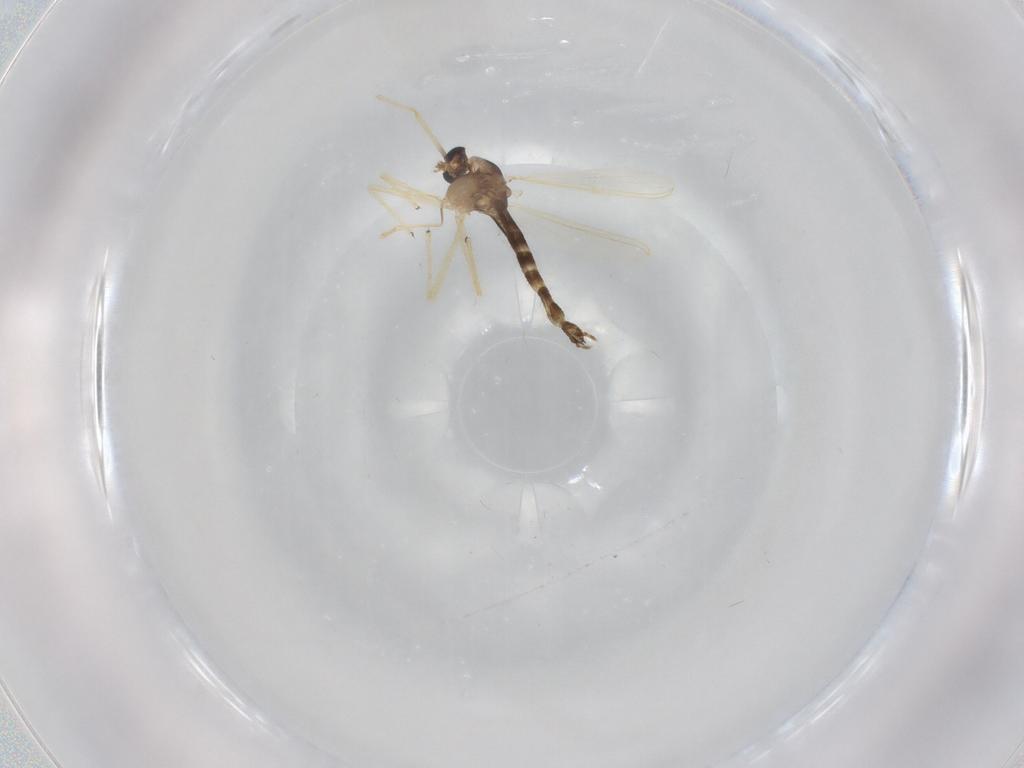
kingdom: Animalia
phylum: Arthropoda
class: Insecta
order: Diptera
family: Chironomidae
